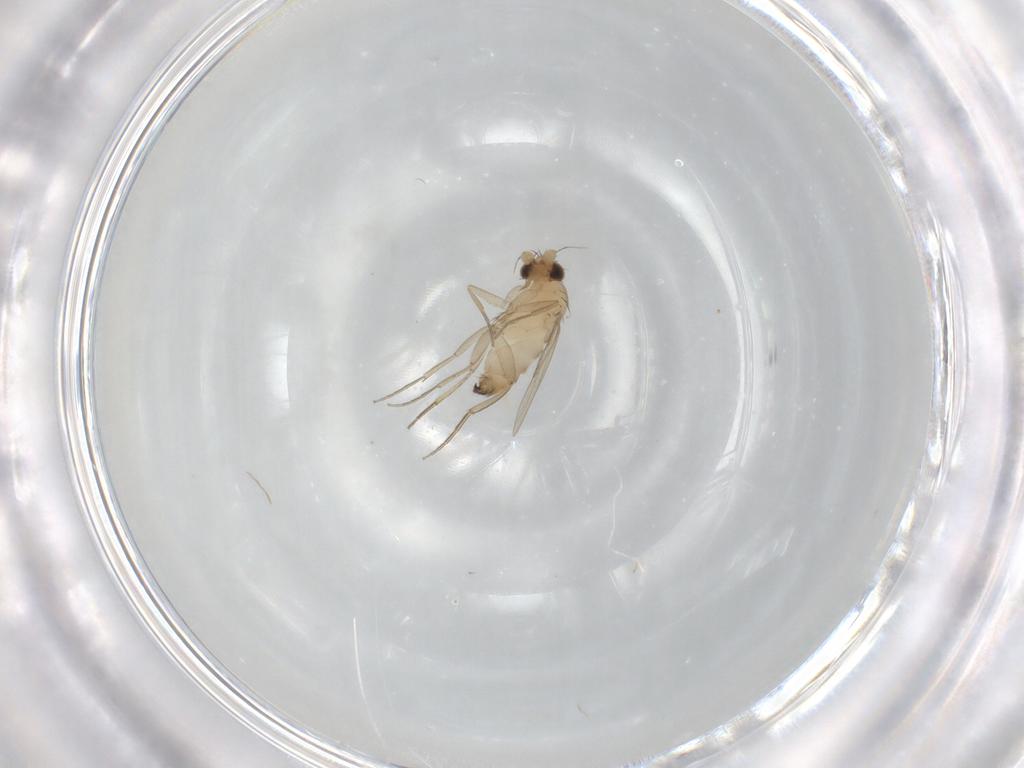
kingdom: Animalia
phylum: Arthropoda
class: Insecta
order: Diptera
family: Phoridae
